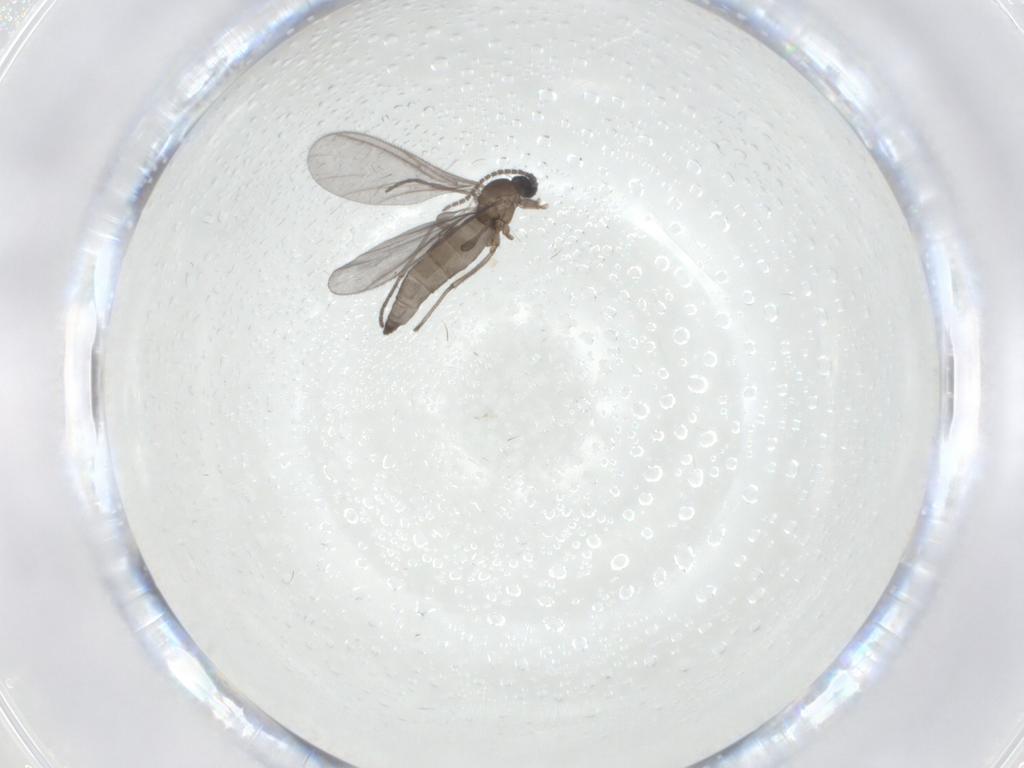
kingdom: Animalia
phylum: Arthropoda
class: Insecta
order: Diptera
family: Sciaridae
